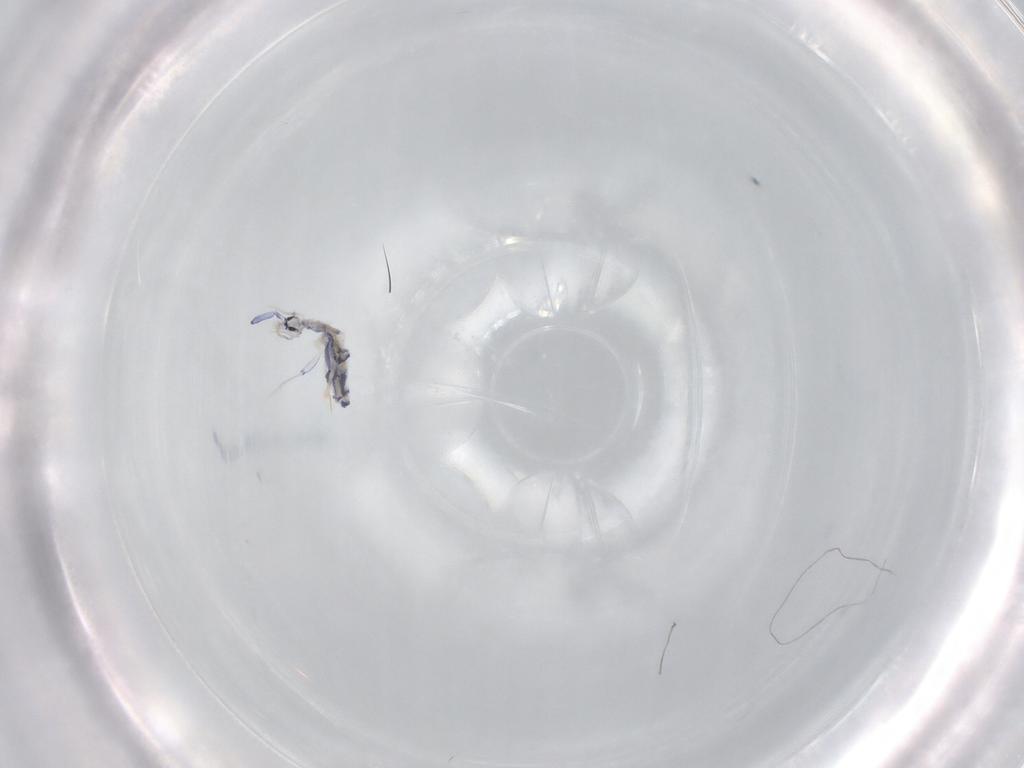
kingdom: Animalia
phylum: Arthropoda
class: Collembola
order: Entomobryomorpha
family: Entomobryidae
